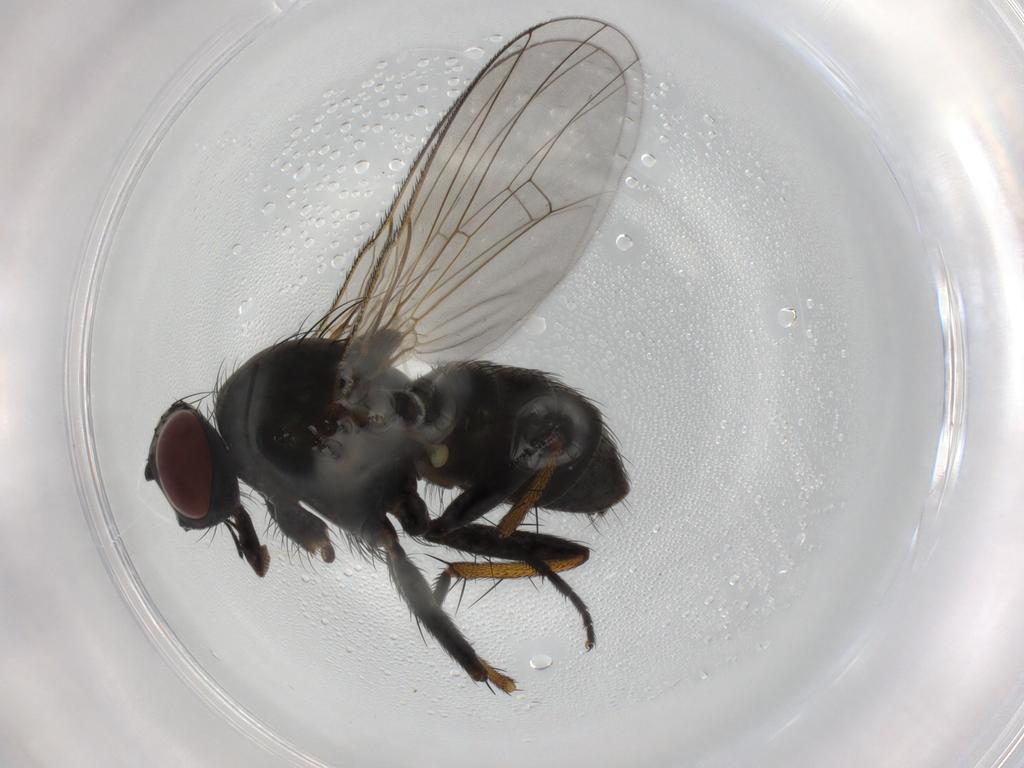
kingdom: Animalia
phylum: Arthropoda
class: Insecta
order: Diptera
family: Muscidae
